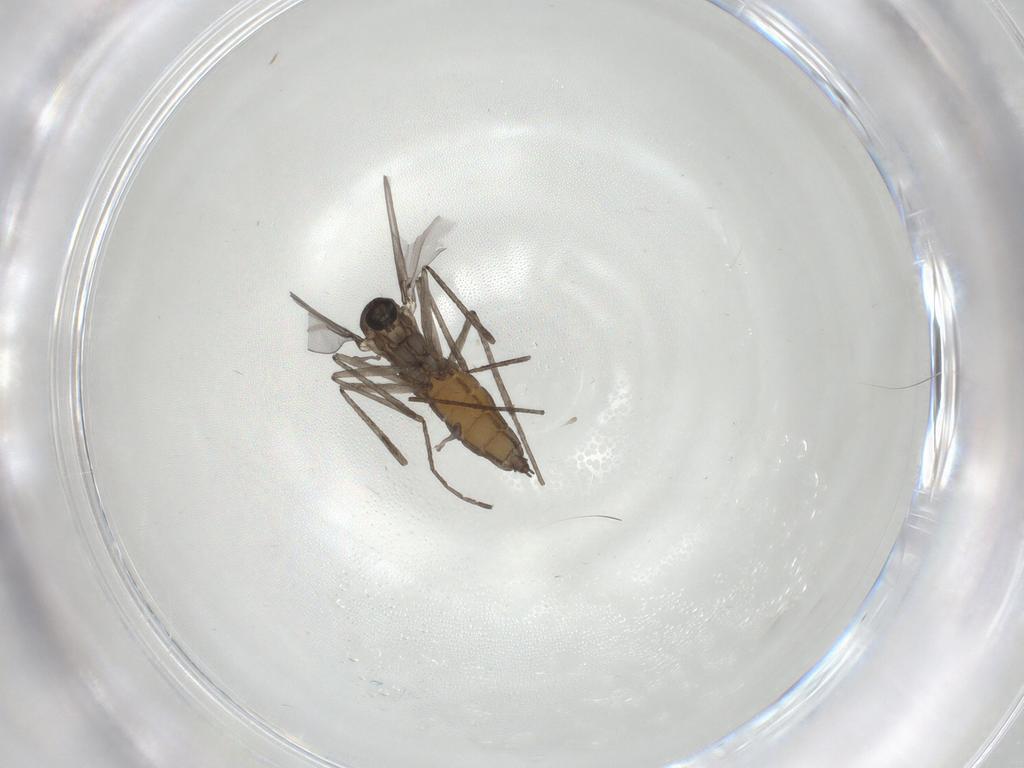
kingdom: Animalia
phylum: Arthropoda
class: Insecta
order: Diptera
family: Cecidomyiidae
